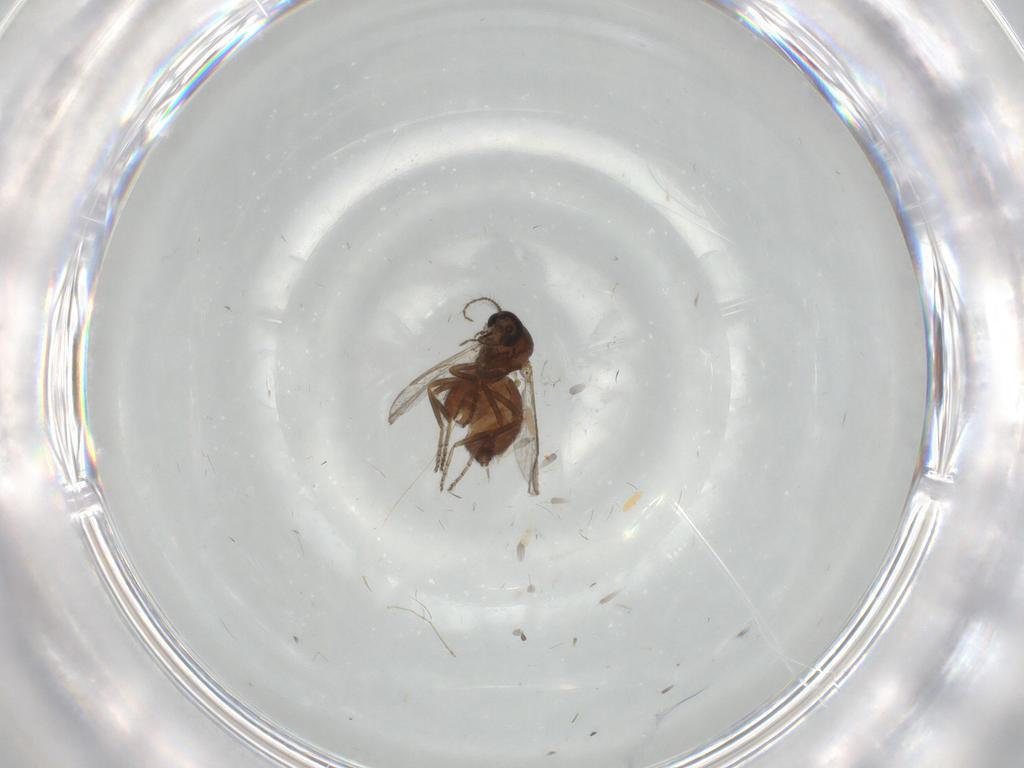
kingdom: Animalia
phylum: Arthropoda
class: Insecta
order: Diptera
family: Ceratopogonidae
